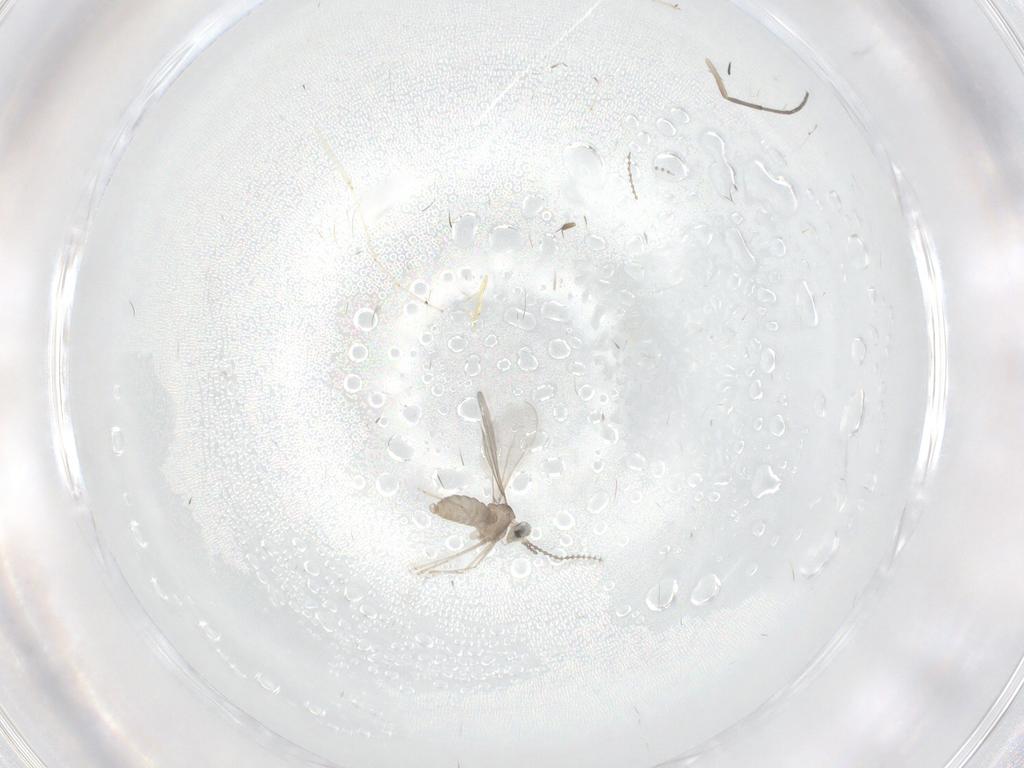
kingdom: Animalia
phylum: Arthropoda
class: Insecta
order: Diptera
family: Cecidomyiidae
